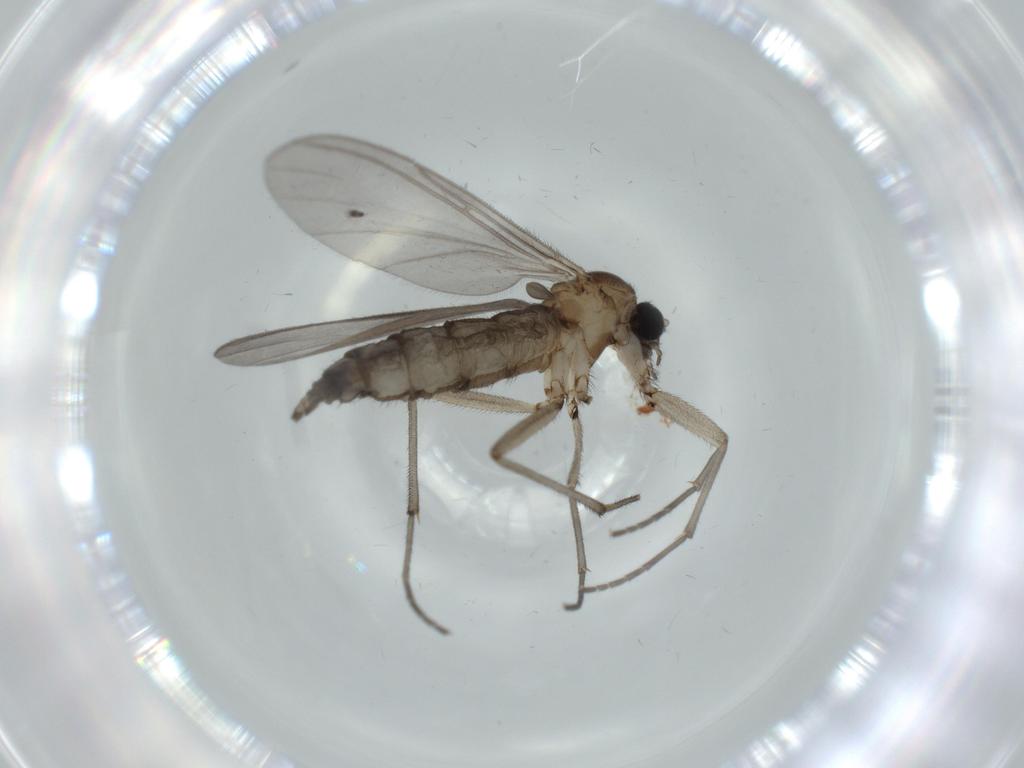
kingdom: Animalia
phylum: Arthropoda
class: Insecta
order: Diptera
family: Sciaridae
